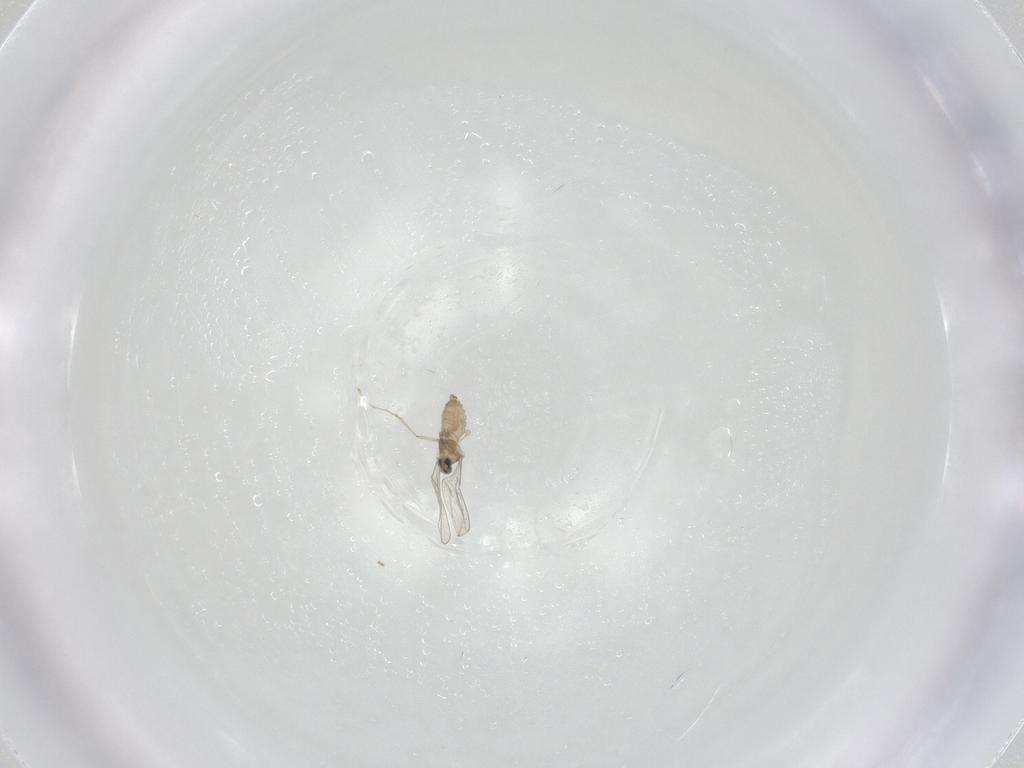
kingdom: Animalia
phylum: Arthropoda
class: Insecta
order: Diptera
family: Cecidomyiidae
